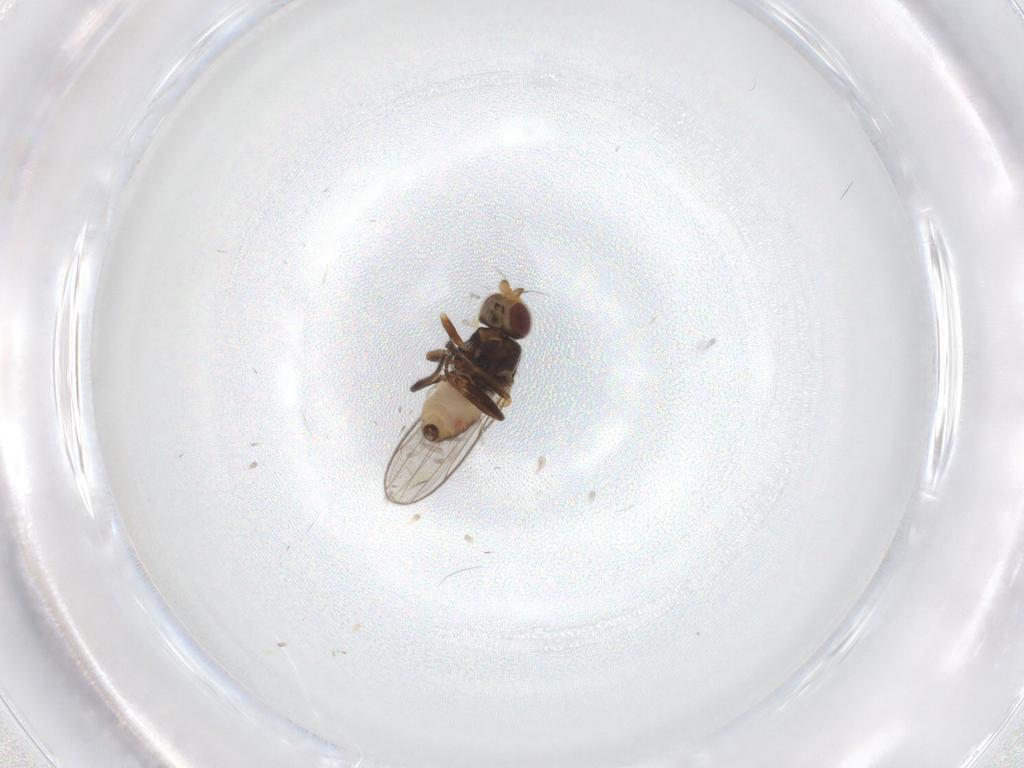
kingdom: Animalia
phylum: Arthropoda
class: Insecta
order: Diptera
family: Chloropidae
